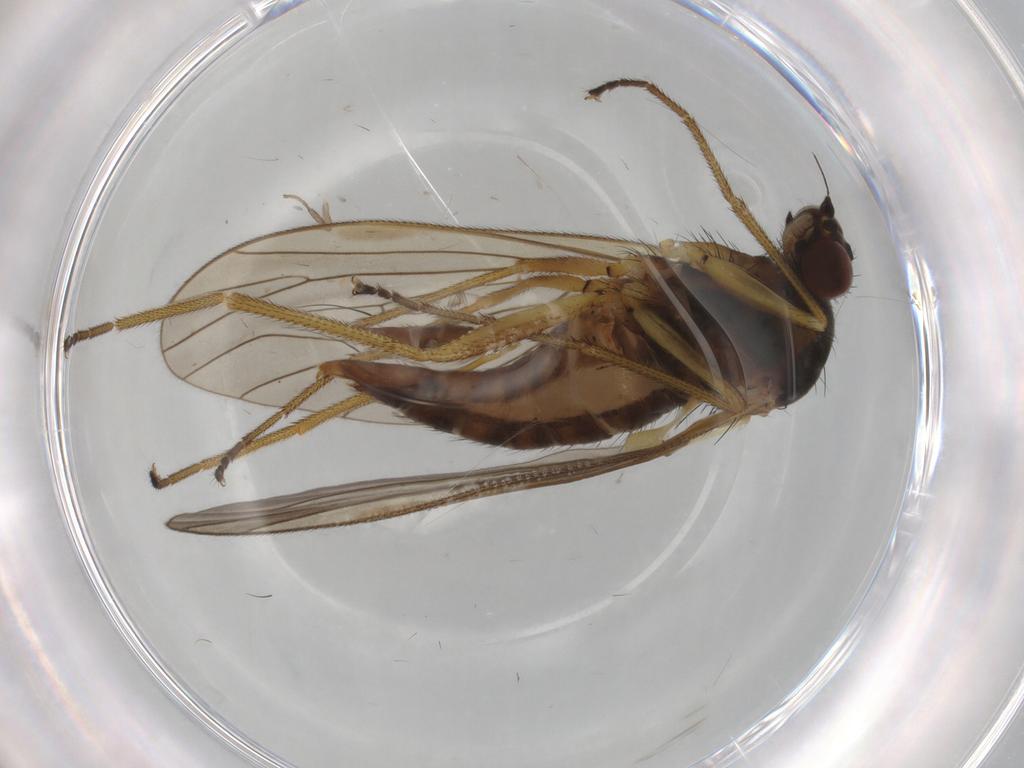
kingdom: Animalia
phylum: Arthropoda
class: Insecta
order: Diptera
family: Brachystomatidae
